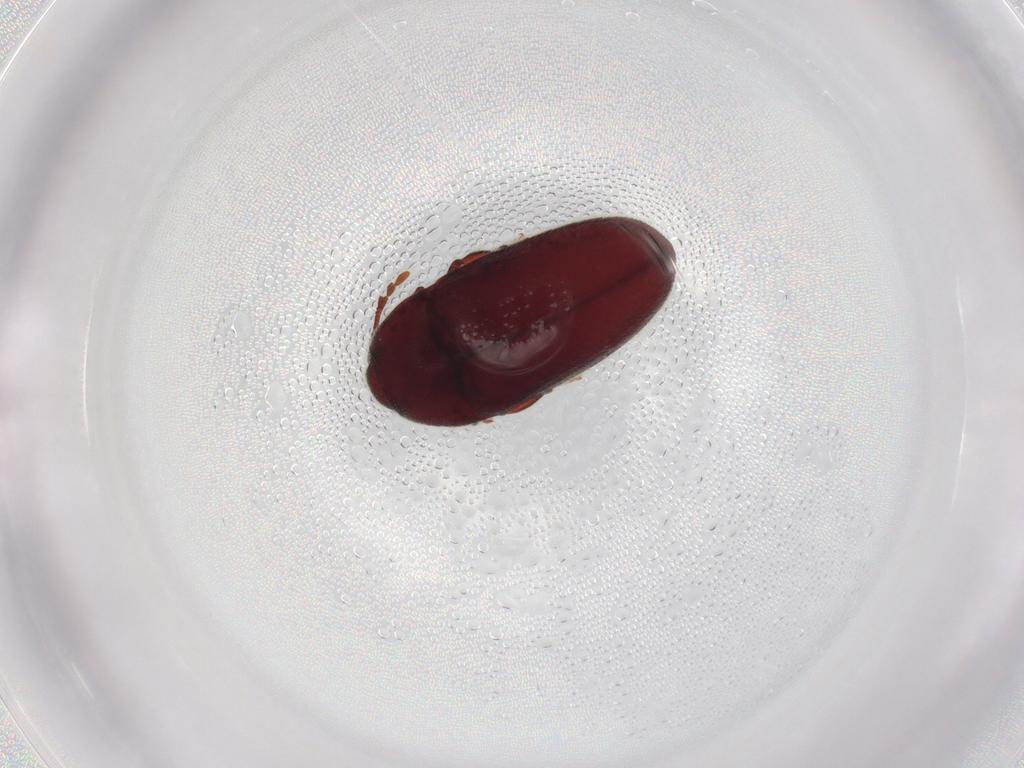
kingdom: Animalia
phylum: Arthropoda
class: Insecta
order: Coleoptera
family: Throscidae
